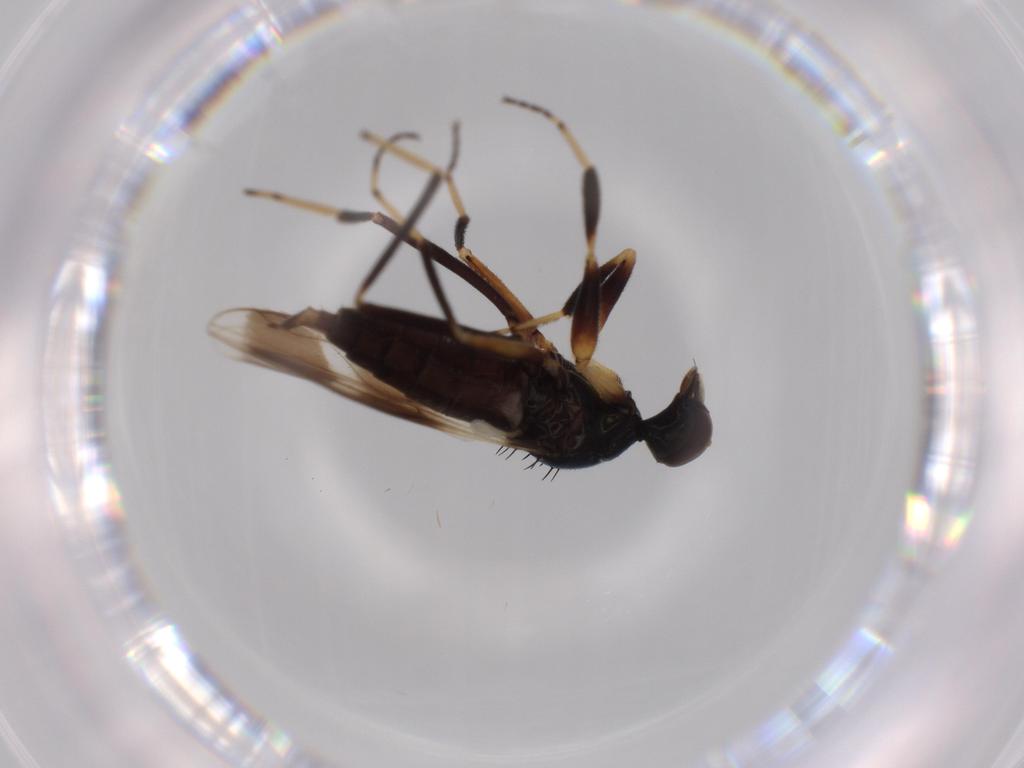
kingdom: Animalia
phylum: Arthropoda
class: Insecta
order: Diptera
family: Hybotidae
